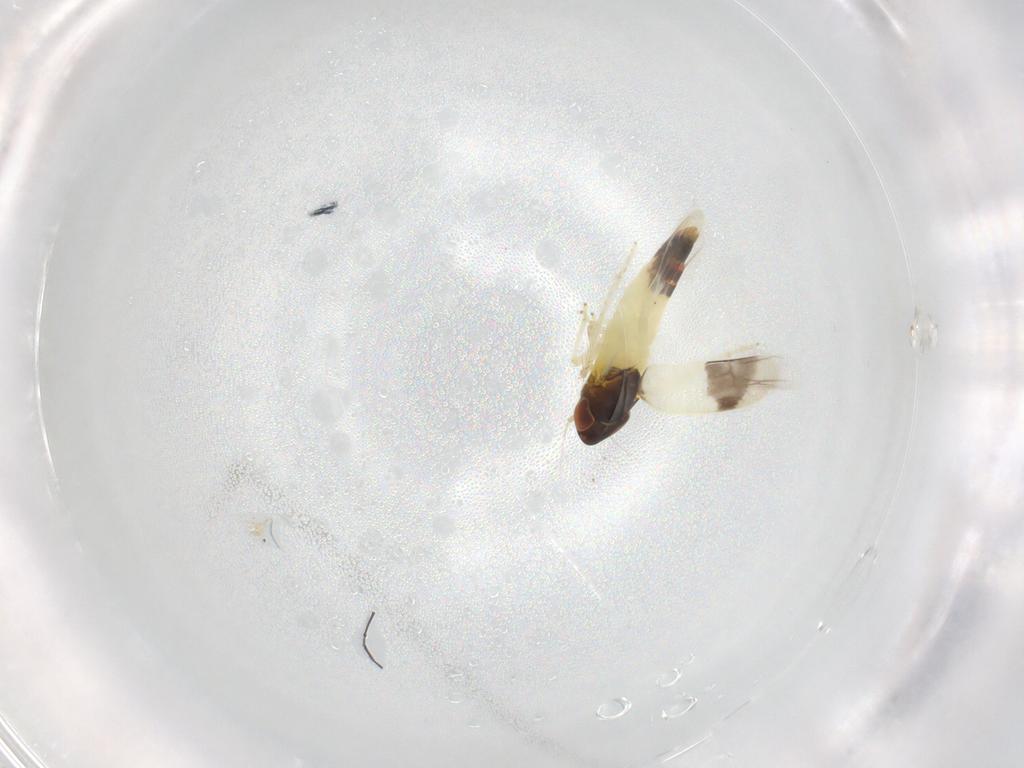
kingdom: Animalia
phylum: Arthropoda
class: Insecta
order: Hemiptera
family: Cicadellidae
